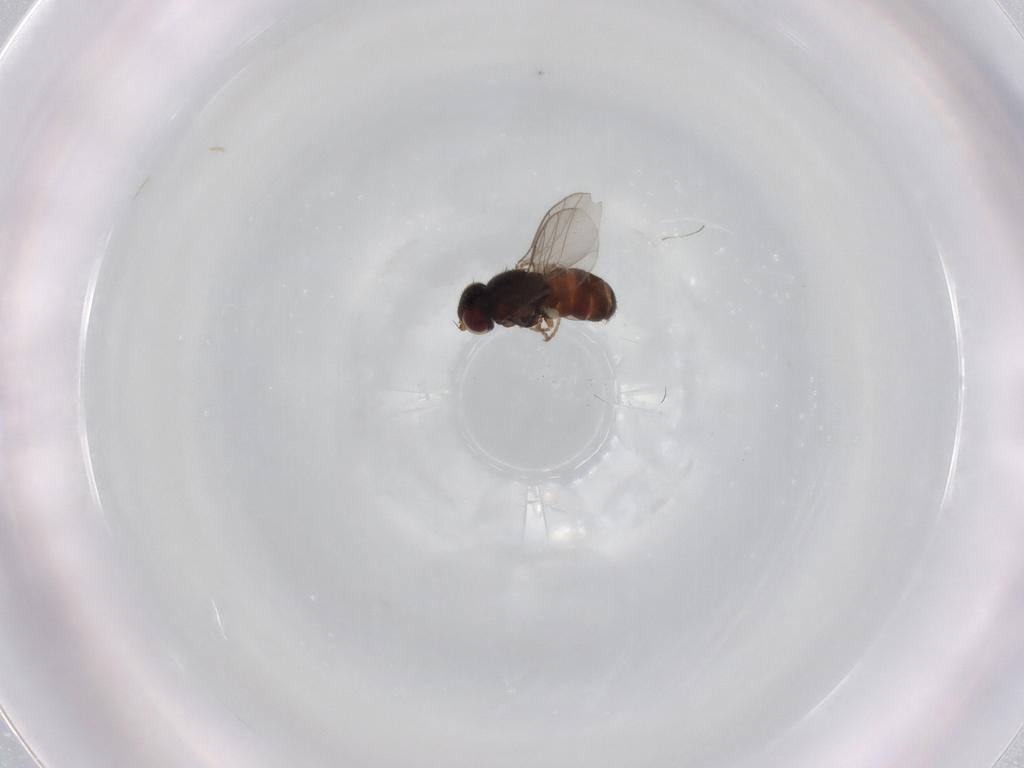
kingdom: Animalia
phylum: Arthropoda
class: Insecta
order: Diptera
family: Chloropidae
